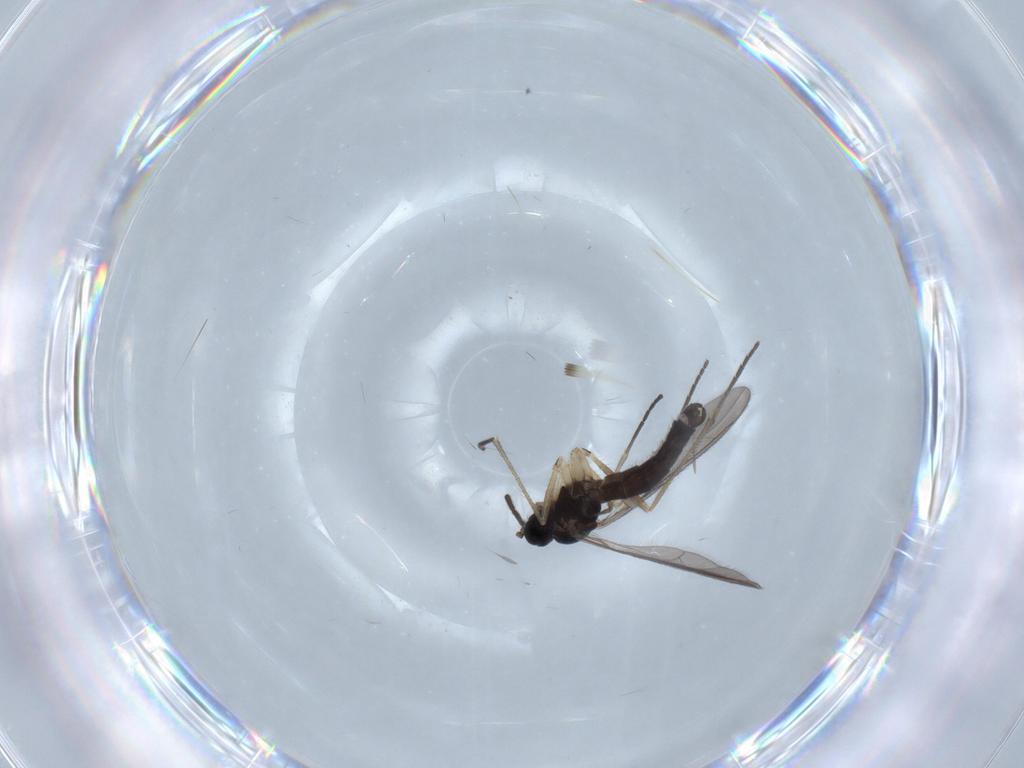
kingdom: Animalia
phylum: Arthropoda
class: Insecta
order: Diptera
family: Sciaridae
